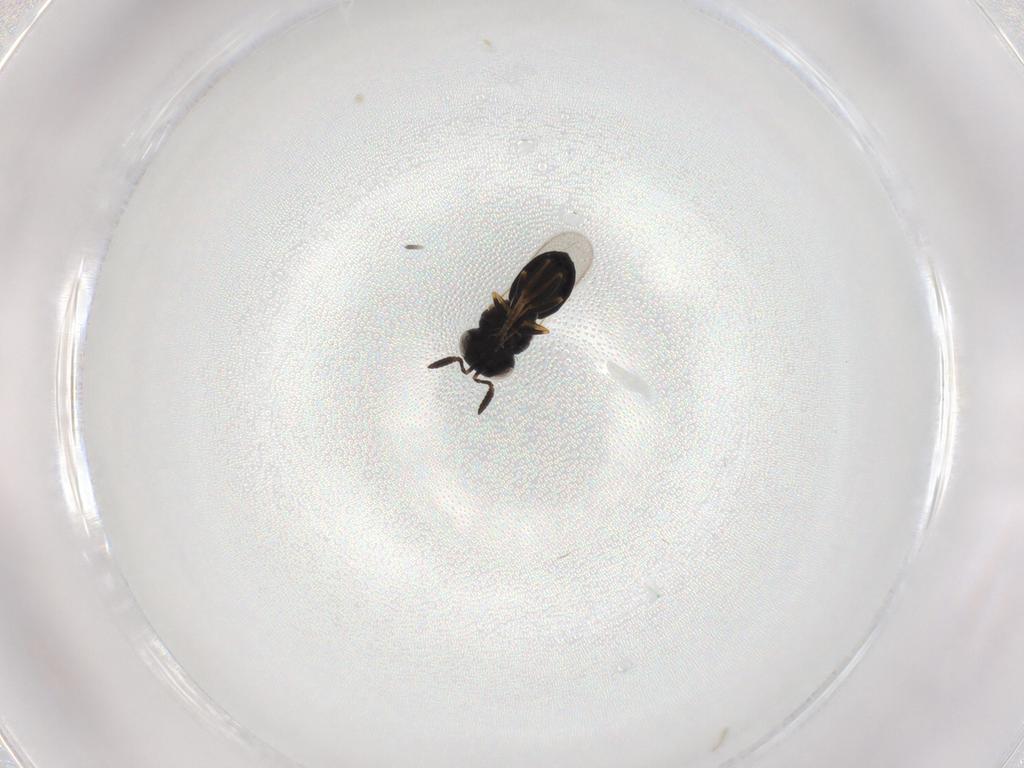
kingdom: Animalia
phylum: Arthropoda
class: Insecta
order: Hymenoptera
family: Scelionidae
